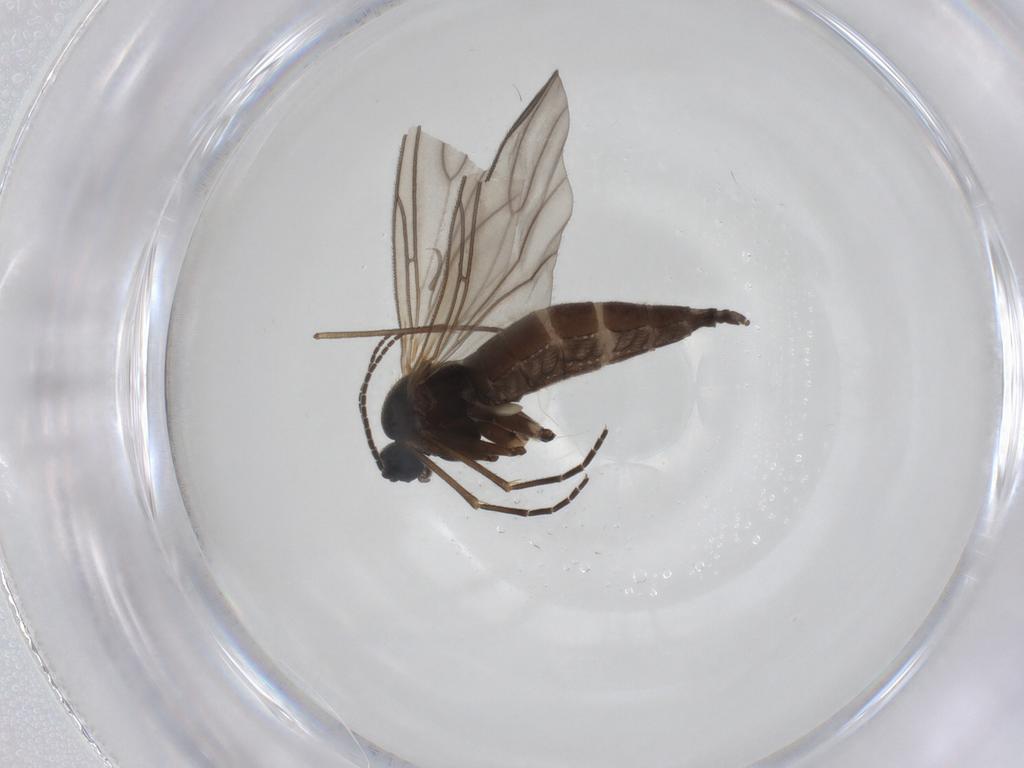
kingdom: Animalia
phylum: Arthropoda
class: Insecta
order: Diptera
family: Sciaridae
